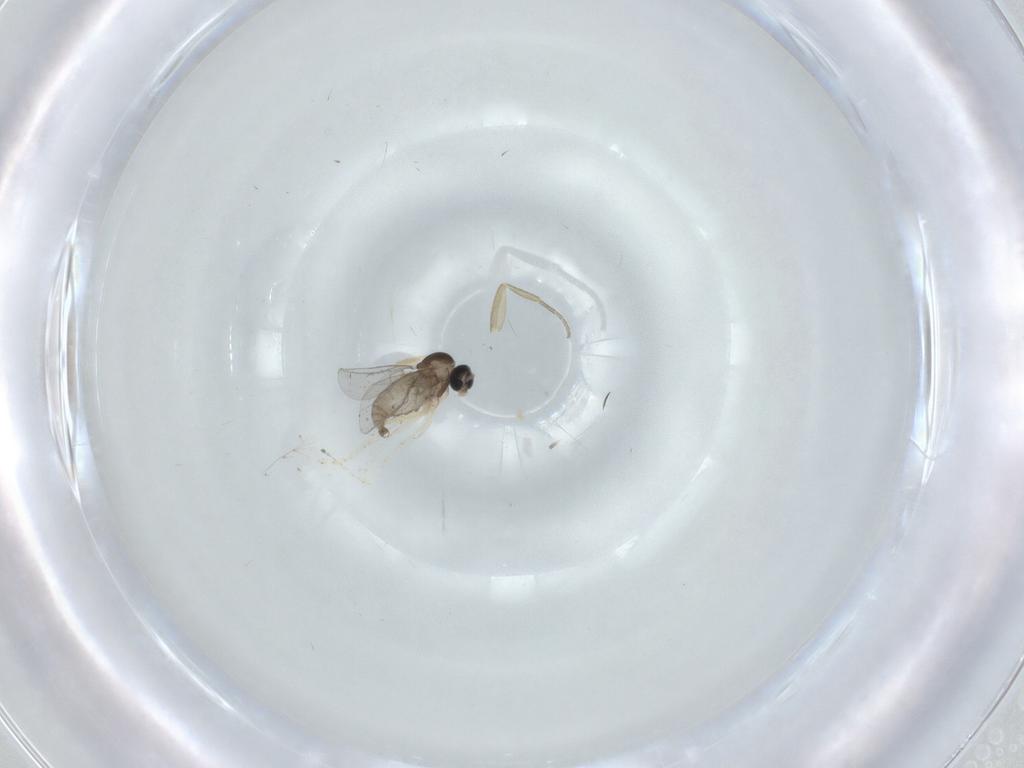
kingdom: Animalia
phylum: Arthropoda
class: Insecta
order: Diptera
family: Cecidomyiidae
